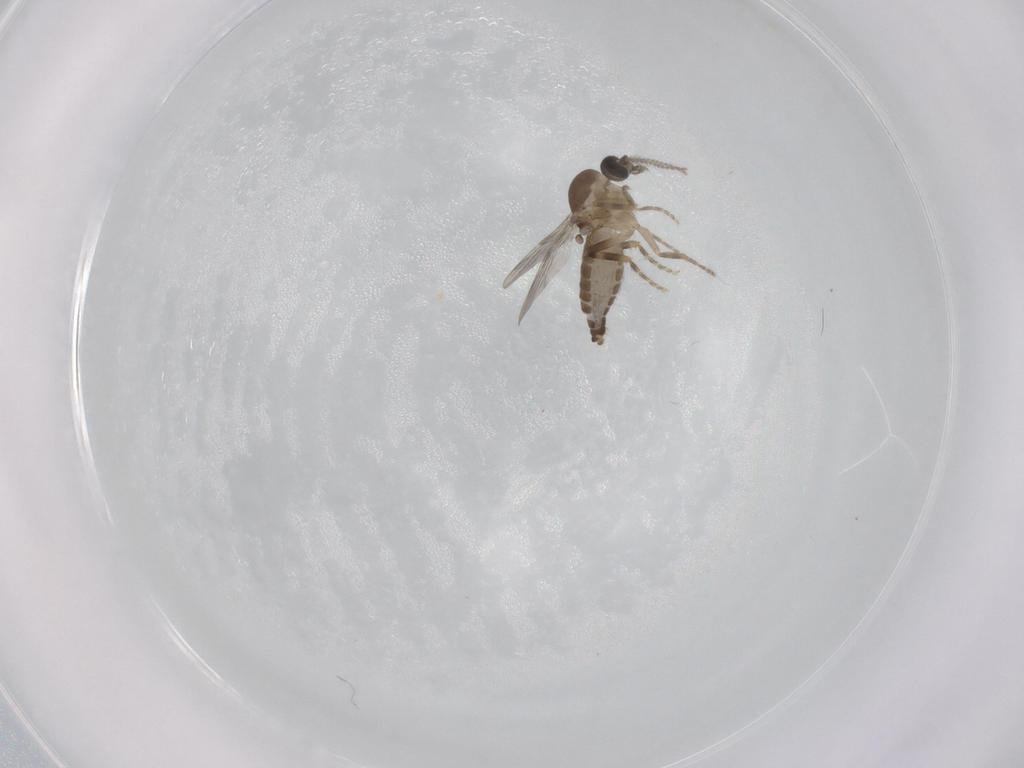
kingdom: Animalia
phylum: Arthropoda
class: Insecta
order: Diptera
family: Ceratopogonidae
